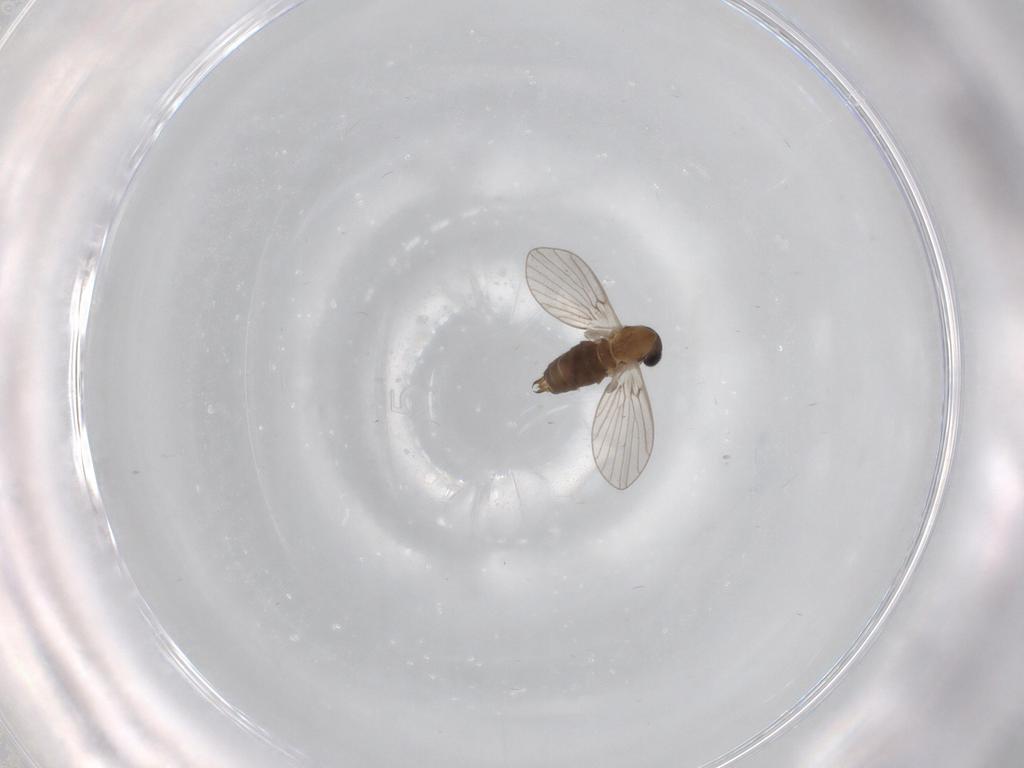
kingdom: Animalia
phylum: Arthropoda
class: Insecta
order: Diptera
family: Psychodidae
